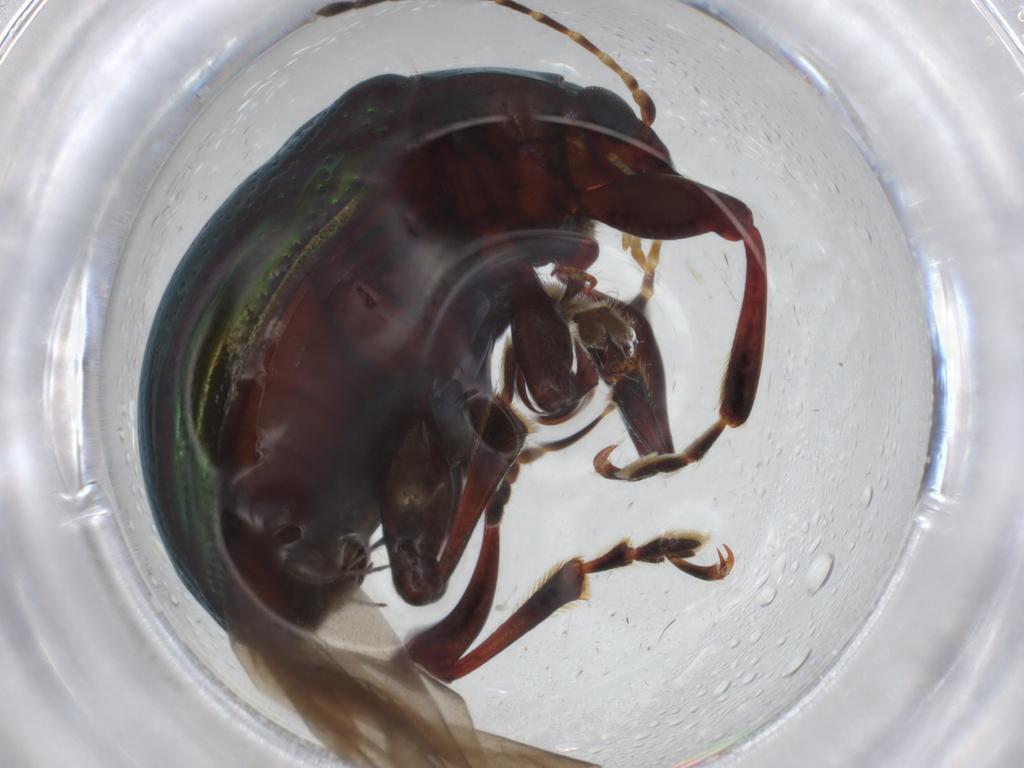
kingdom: Animalia
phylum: Arthropoda
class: Insecta
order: Coleoptera
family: Chrysomelidae
